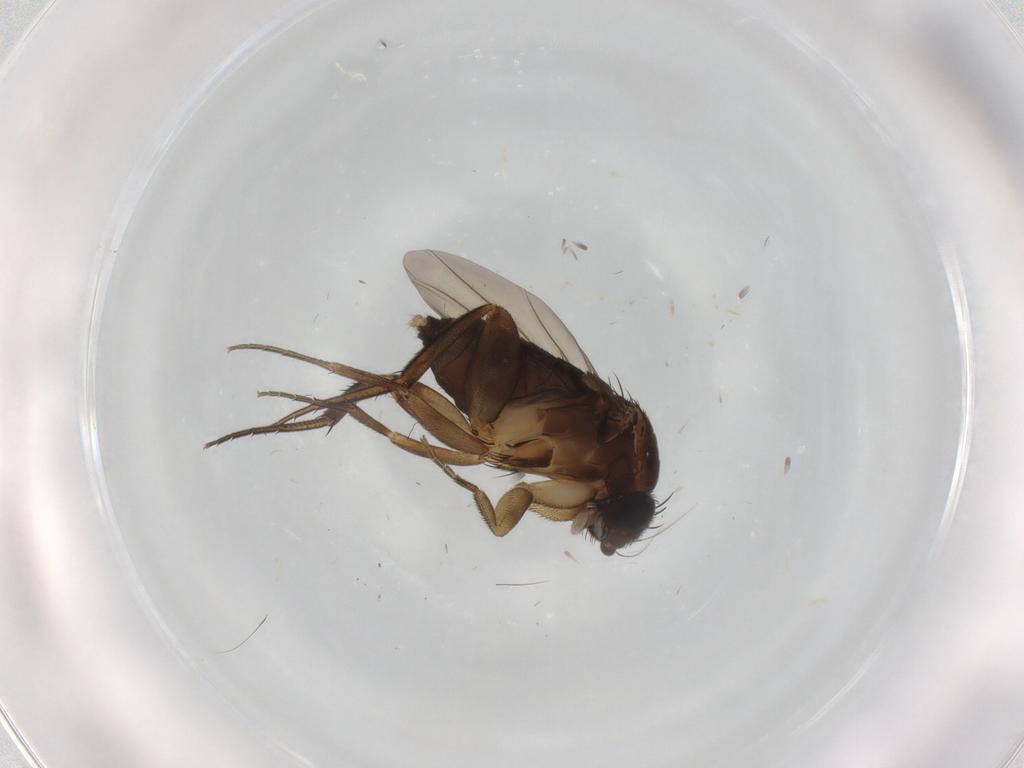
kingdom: Animalia
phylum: Arthropoda
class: Insecta
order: Diptera
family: Phoridae
